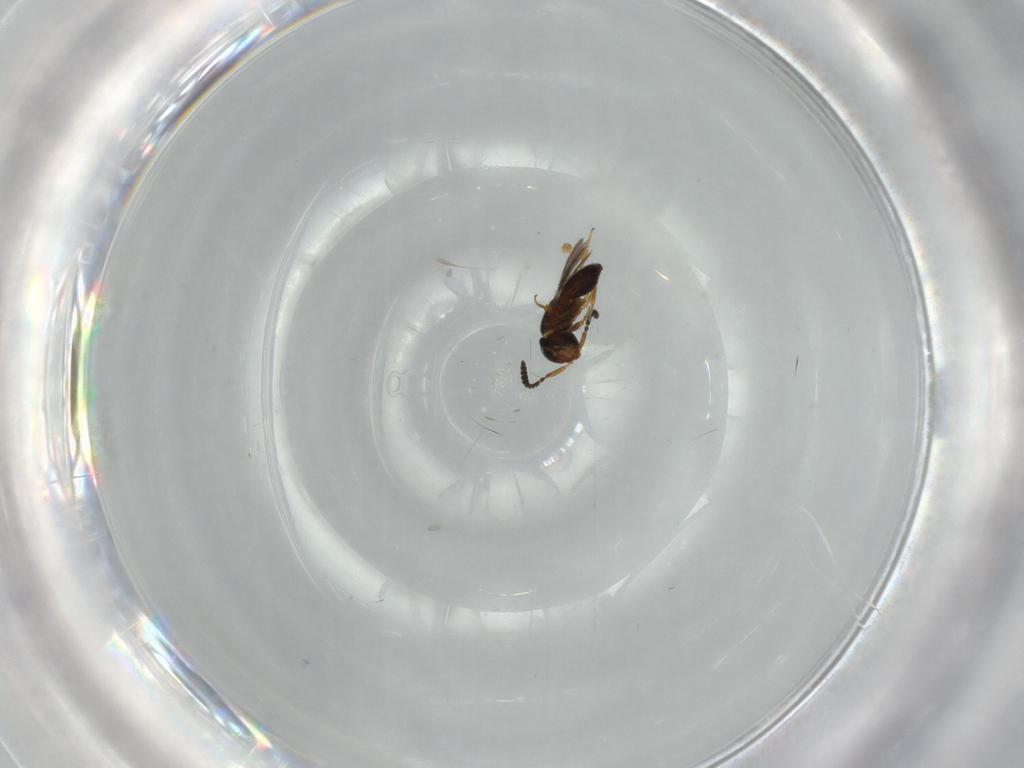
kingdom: Animalia
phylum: Arthropoda
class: Insecta
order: Hymenoptera
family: Scelionidae
